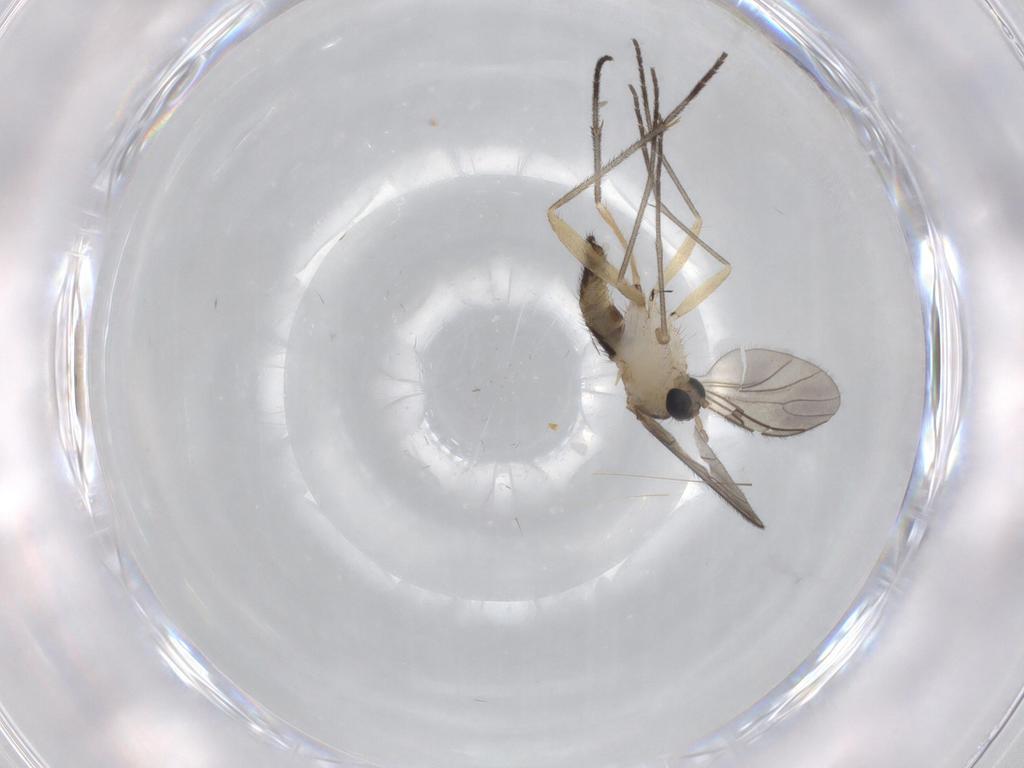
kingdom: Animalia
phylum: Arthropoda
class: Insecta
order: Diptera
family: Sciaridae
